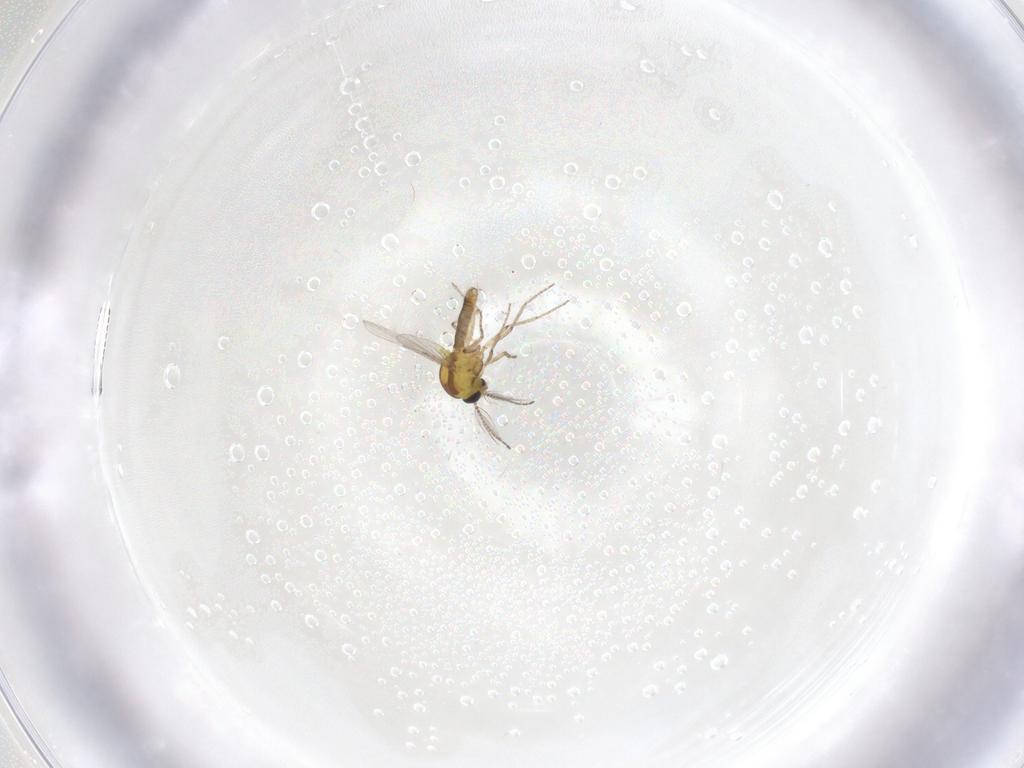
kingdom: Animalia
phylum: Arthropoda
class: Insecta
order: Diptera
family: Ceratopogonidae
